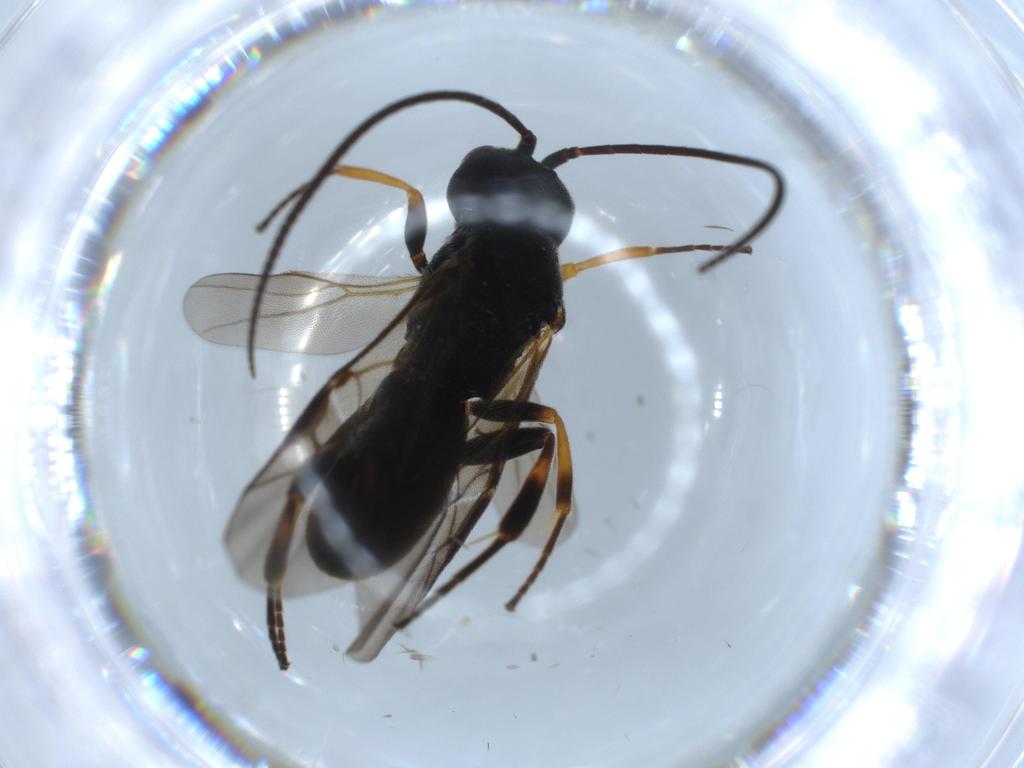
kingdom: Animalia
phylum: Arthropoda
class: Insecta
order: Hymenoptera
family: Braconidae
